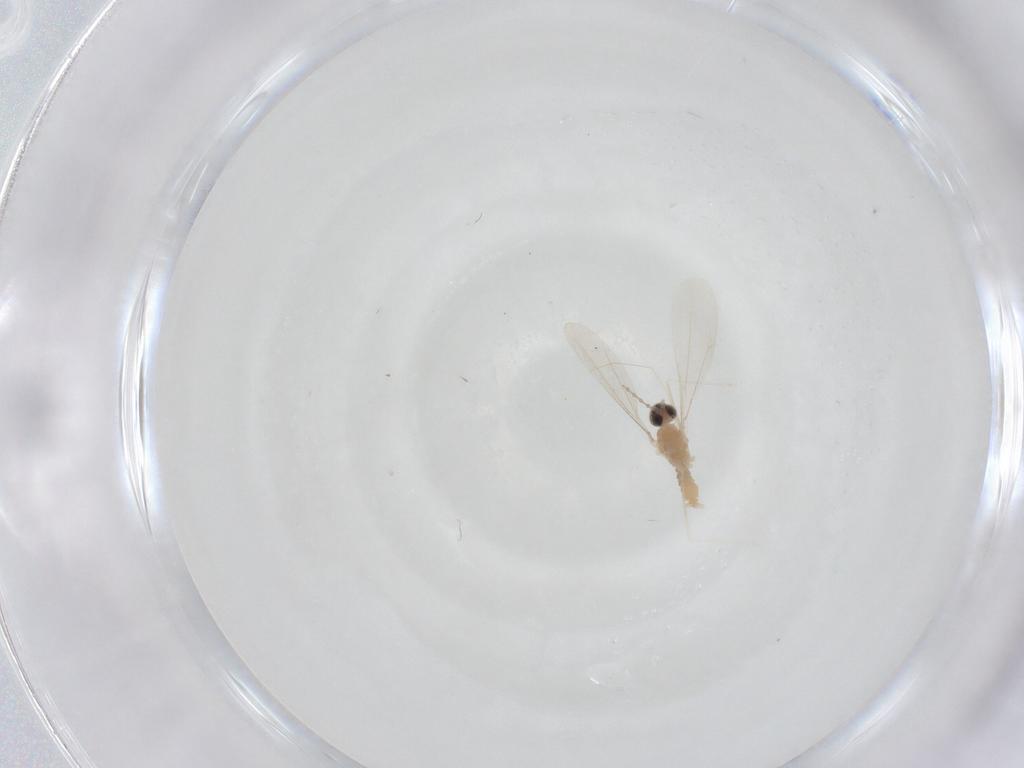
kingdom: Animalia
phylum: Arthropoda
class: Insecta
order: Diptera
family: Cecidomyiidae
